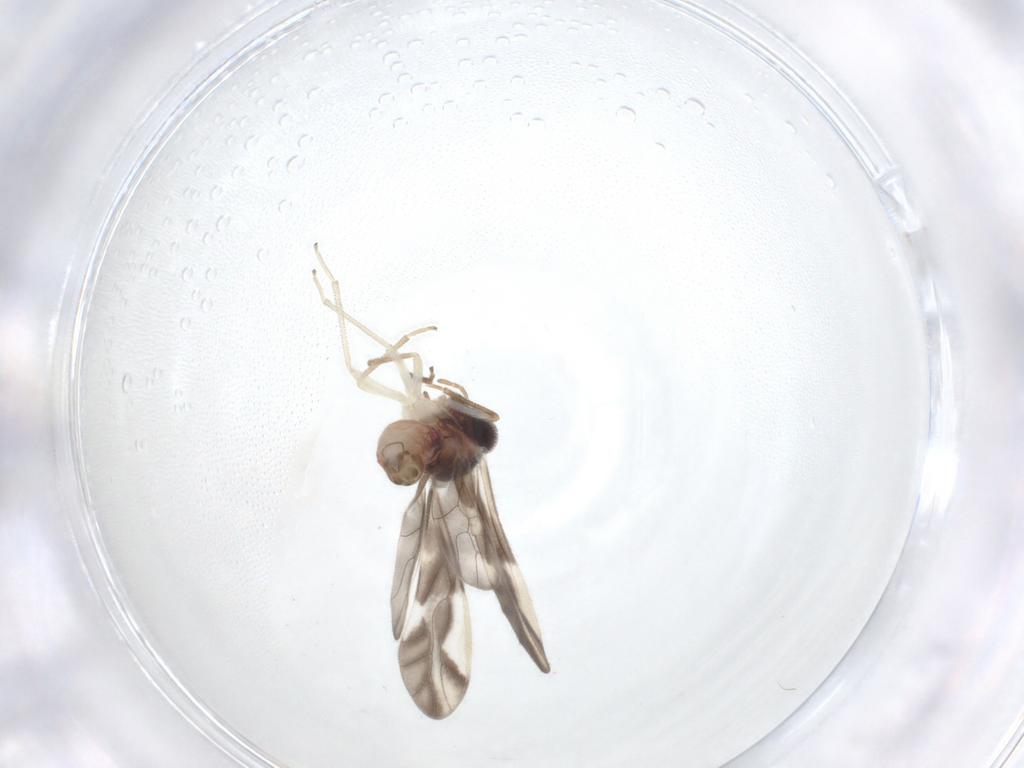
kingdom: Animalia
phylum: Arthropoda
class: Insecta
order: Psocodea
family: Caeciliusidae
